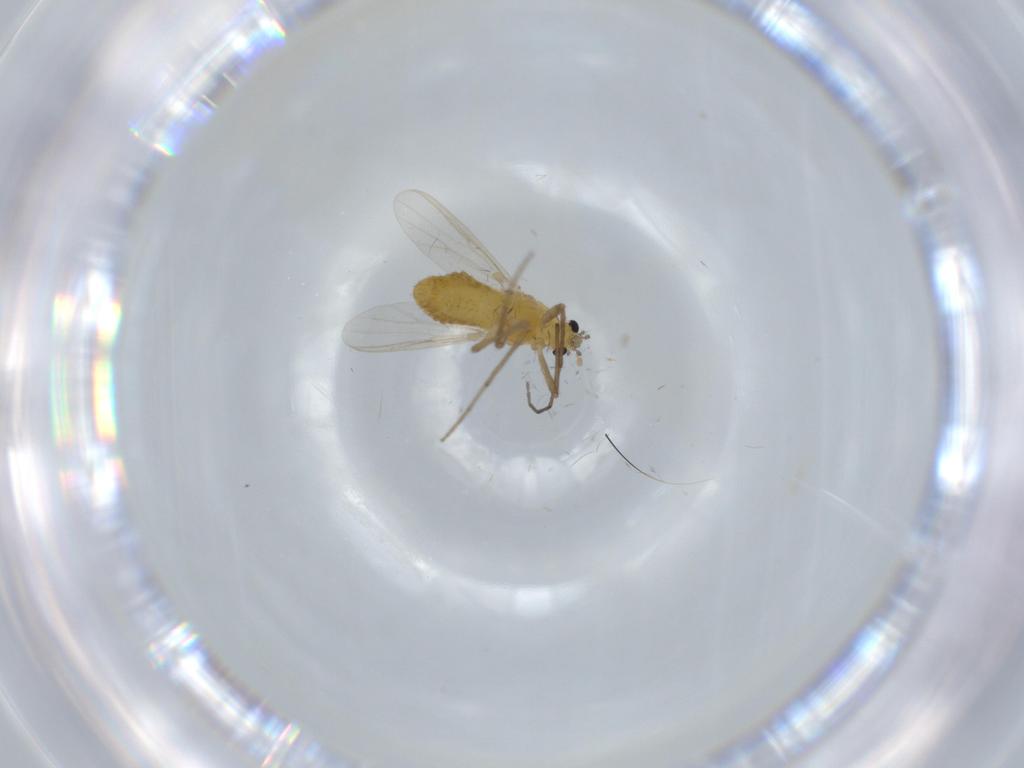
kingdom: Animalia
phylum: Arthropoda
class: Insecta
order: Diptera
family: Chironomidae
